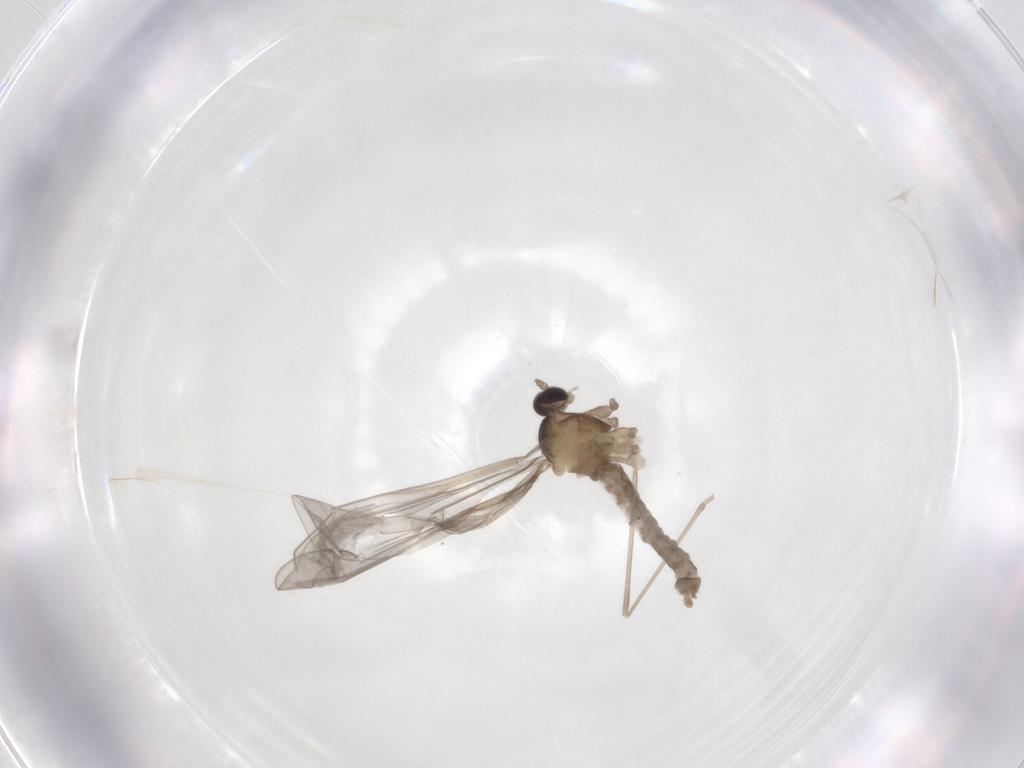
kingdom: Animalia
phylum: Arthropoda
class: Insecta
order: Diptera
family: Cecidomyiidae
